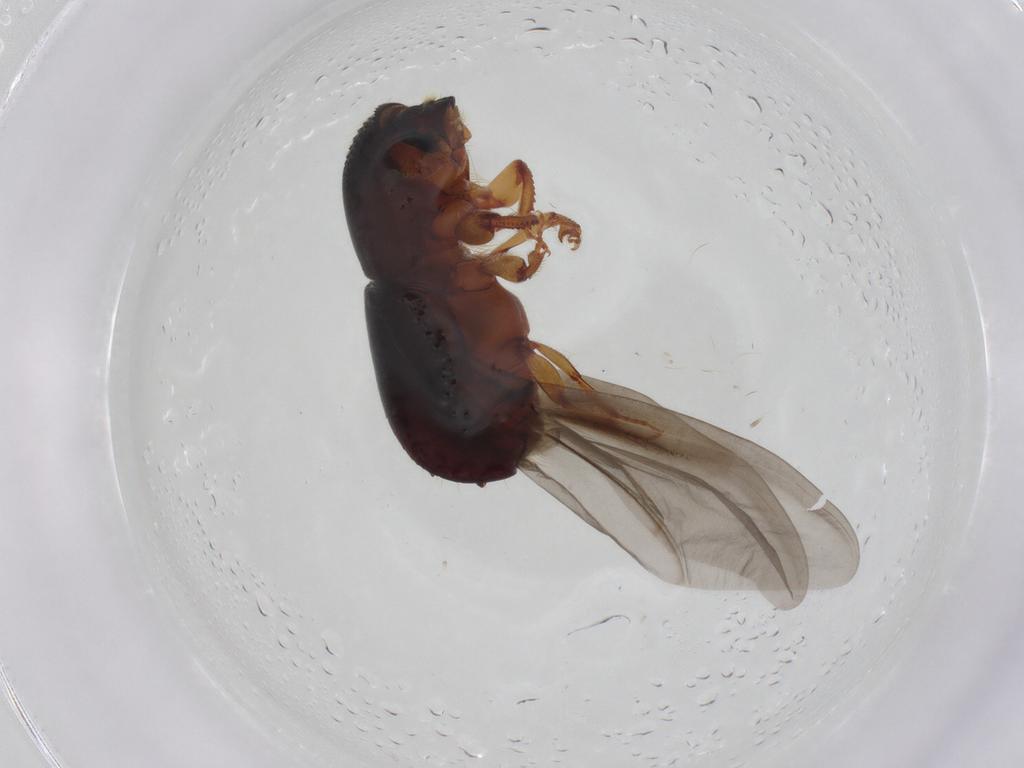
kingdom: Animalia
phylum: Arthropoda
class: Insecta
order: Coleoptera
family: Curculionidae
